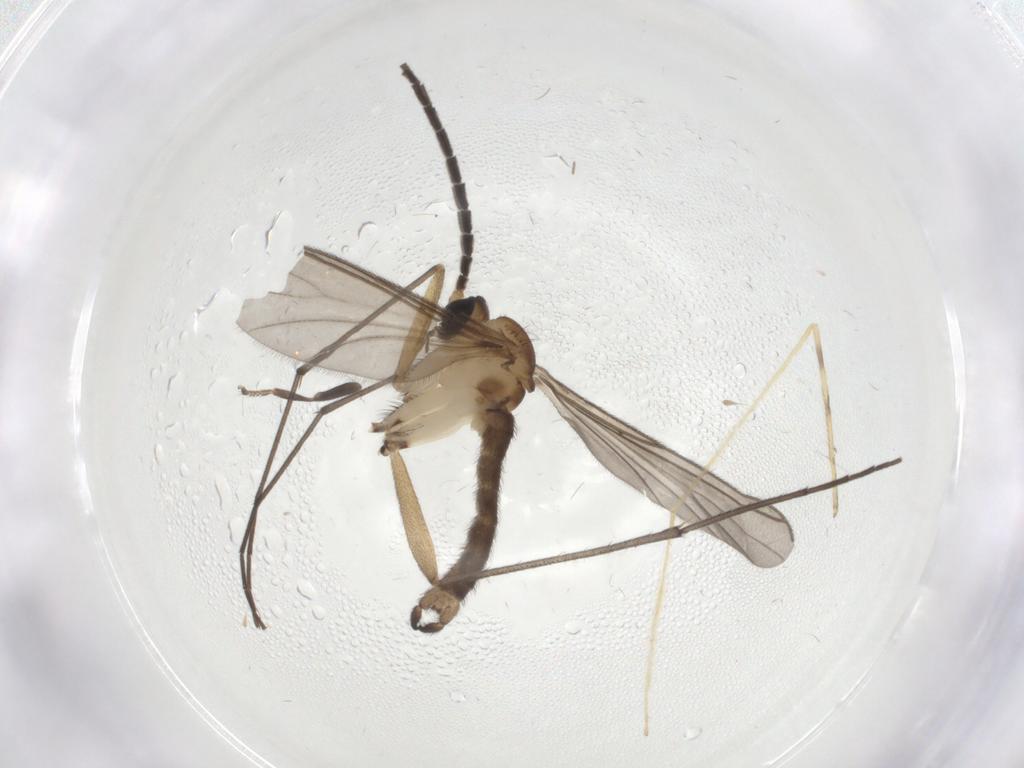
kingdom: Animalia
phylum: Arthropoda
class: Insecta
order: Diptera
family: Sciaridae
